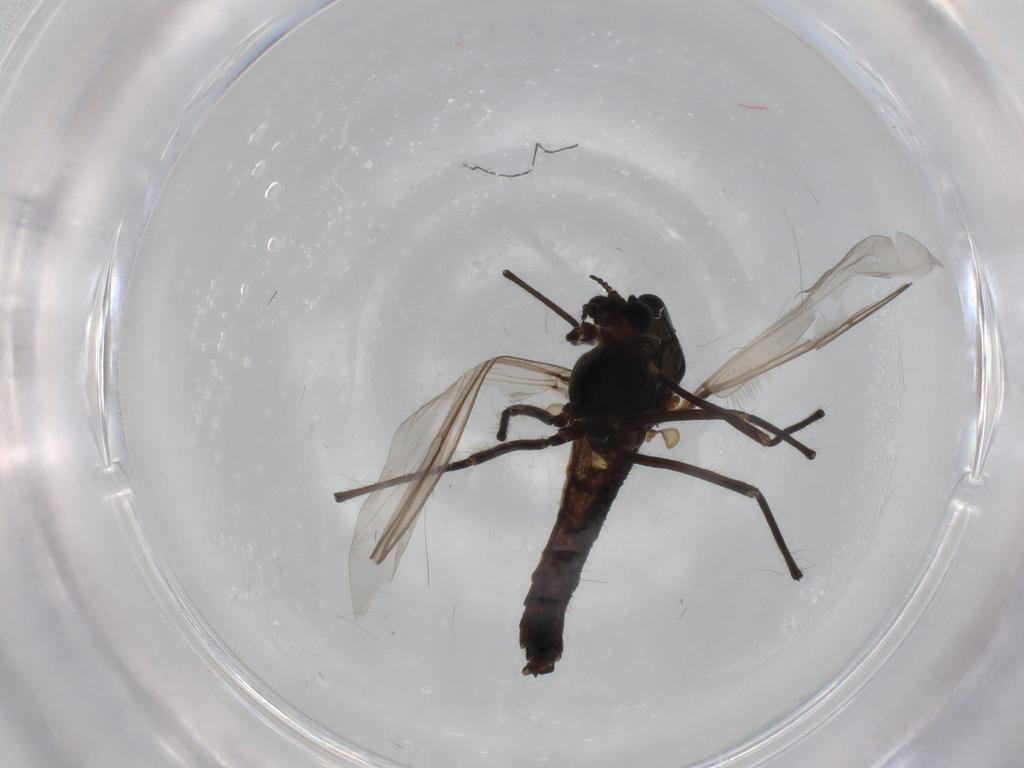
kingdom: Animalia
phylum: Arthropoda
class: Insecta
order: Diptera
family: Chironomidae
